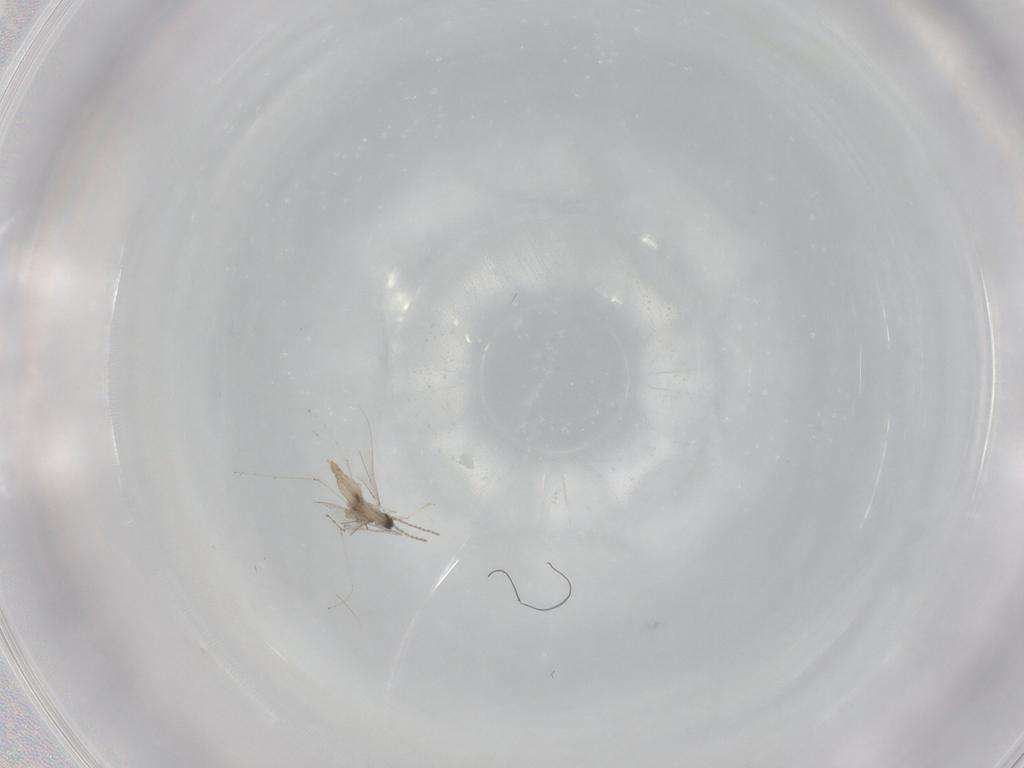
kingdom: Animalia
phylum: Arthropoda
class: Insecta
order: Diptera
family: Cecidomyiidae
